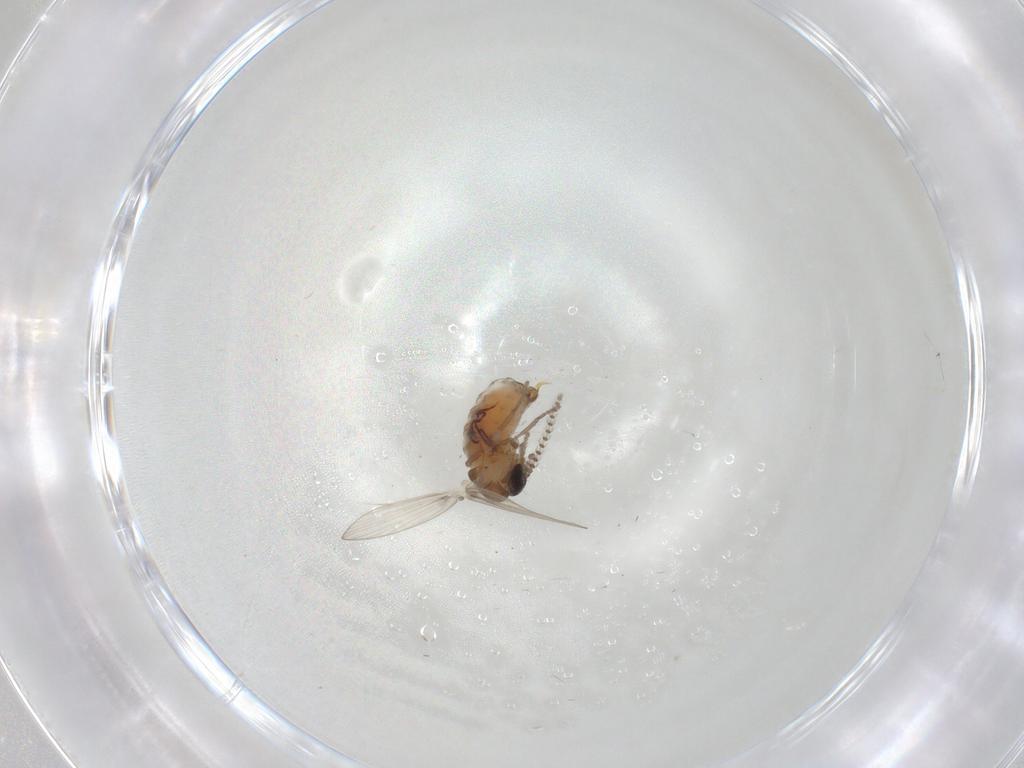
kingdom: Animalia
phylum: Arthropoda
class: Insecta
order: Diptera
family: Psychodidae
